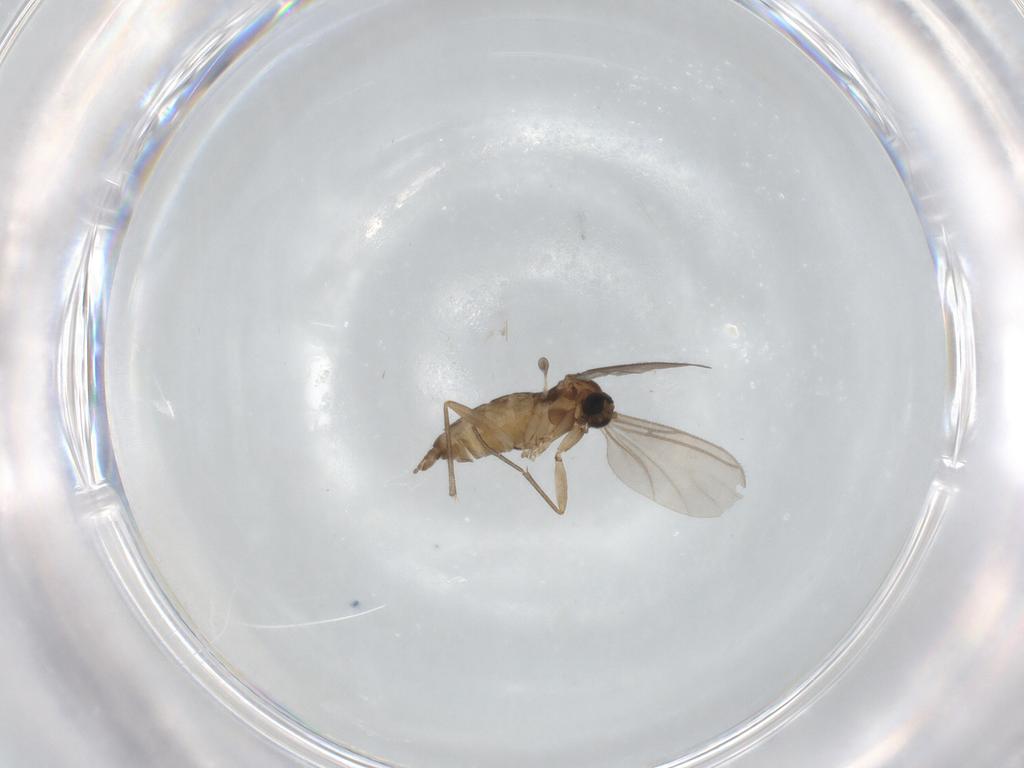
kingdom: Animalia
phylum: Arthropoda
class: Insecta
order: Diptera
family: Sciaridae
